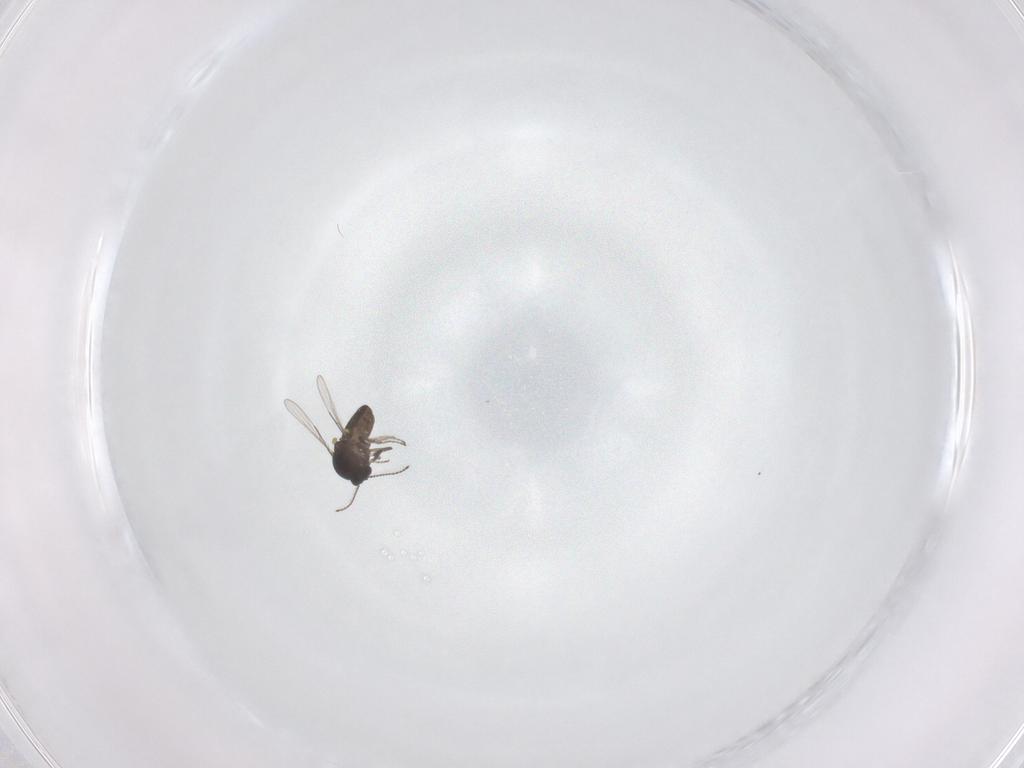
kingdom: Animalia
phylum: Arthropoda
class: Insecta
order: Diptera
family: Ceratopogonidae
